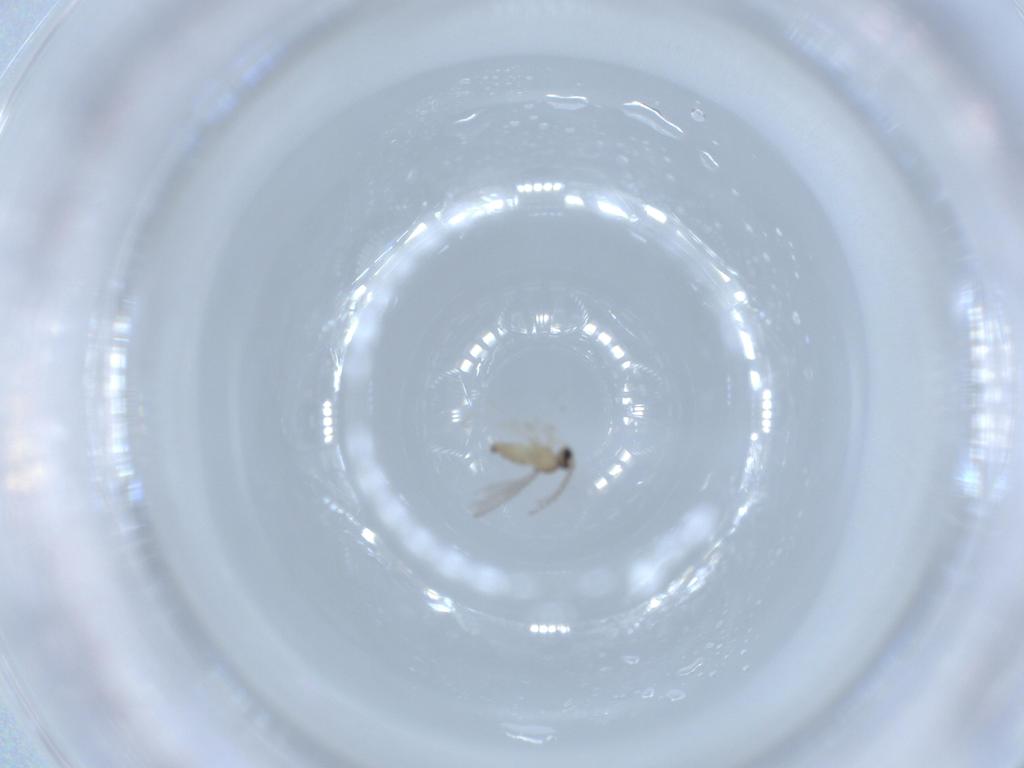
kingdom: Animalia
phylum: Arthropoda
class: Insecta
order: Diptera
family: Cecidomyiidae
